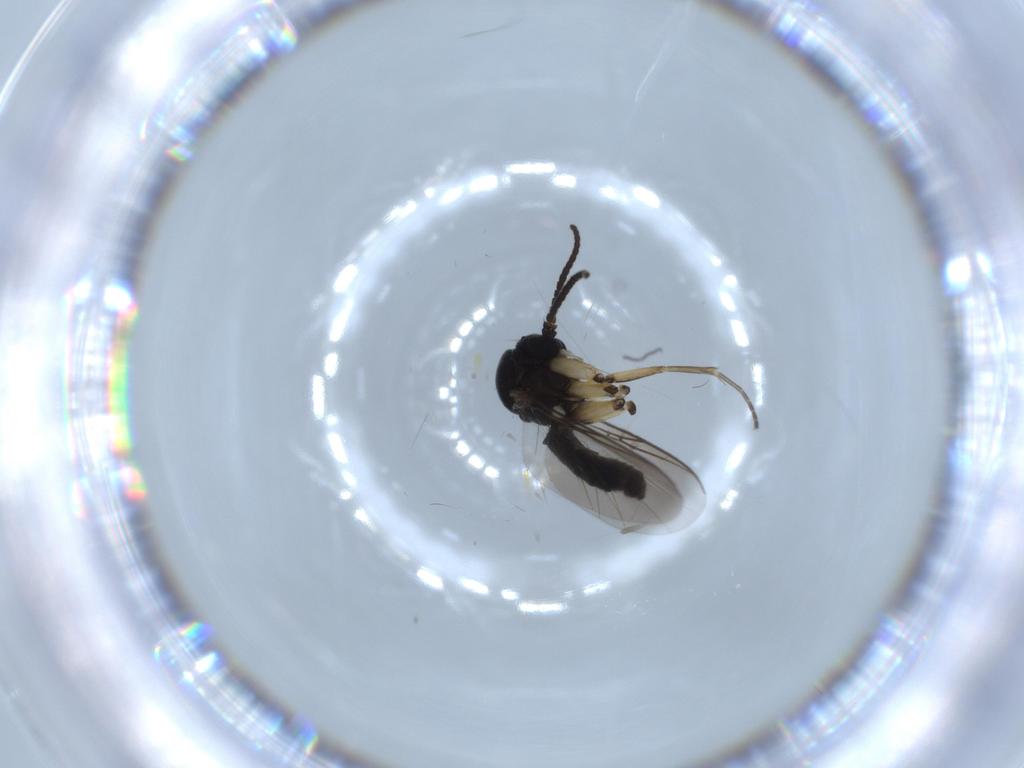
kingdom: Animalia
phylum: Arthropoda
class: Insecta
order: Diptera
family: Mycetophilidae
